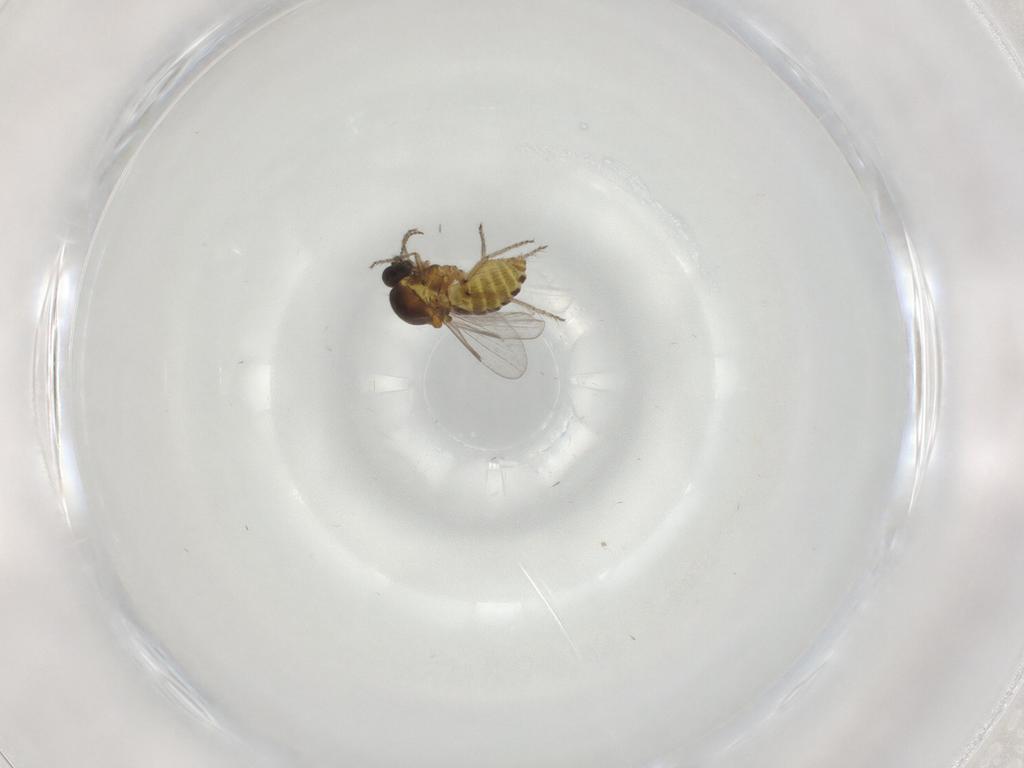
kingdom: Animalia
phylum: Arthropoda
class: Insecta
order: Diptera
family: Ceratopogonidae
